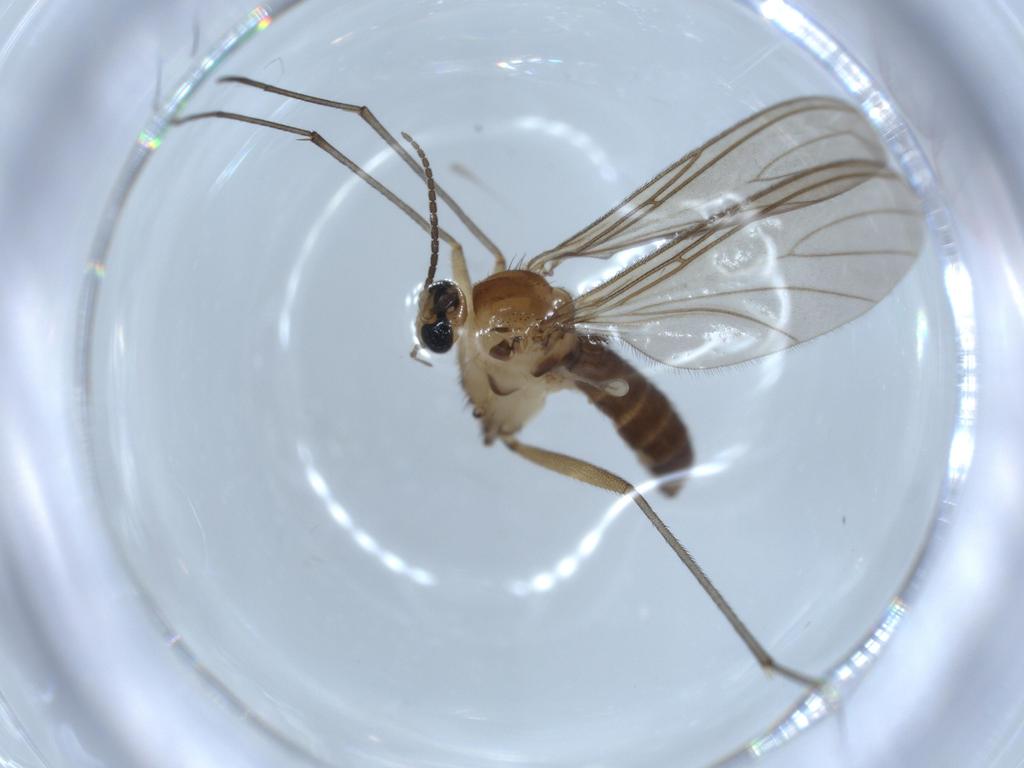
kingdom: Animalia
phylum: Arthropoda
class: Insecta
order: Diptera
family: Sciaridae
